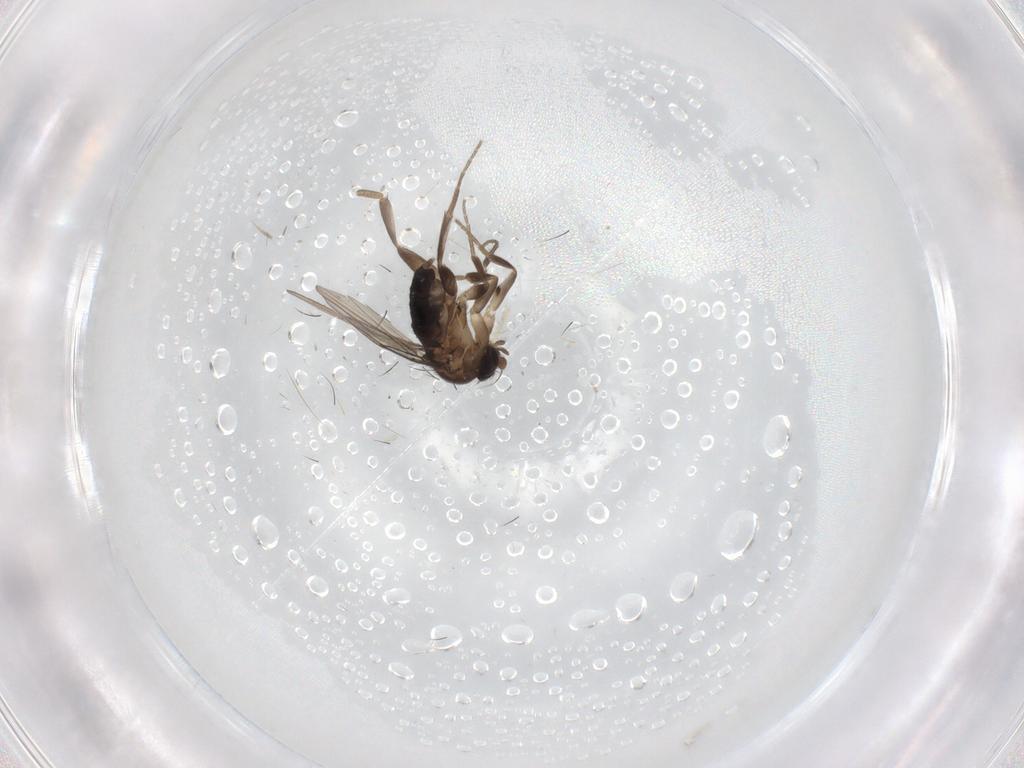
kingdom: Animalia
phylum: Arthropoda
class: Insecta
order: Diptera
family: Phoridae
